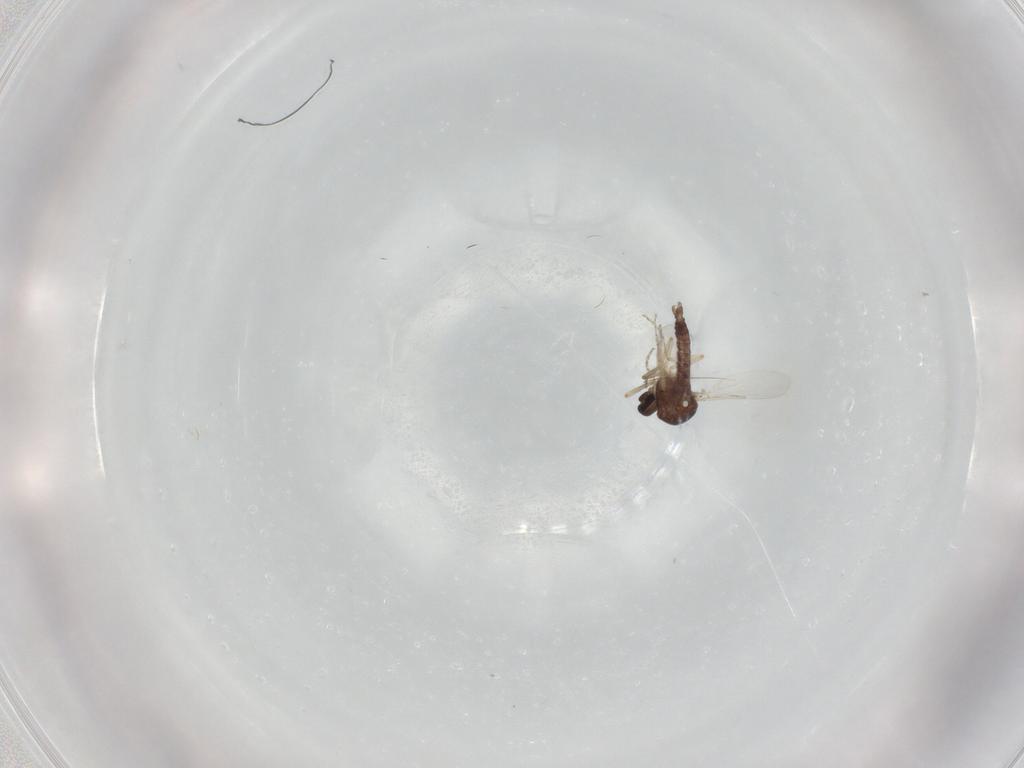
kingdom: Animalia
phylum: Arthropoda
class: Insecta
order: Diptera
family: Ceratopogonidae
